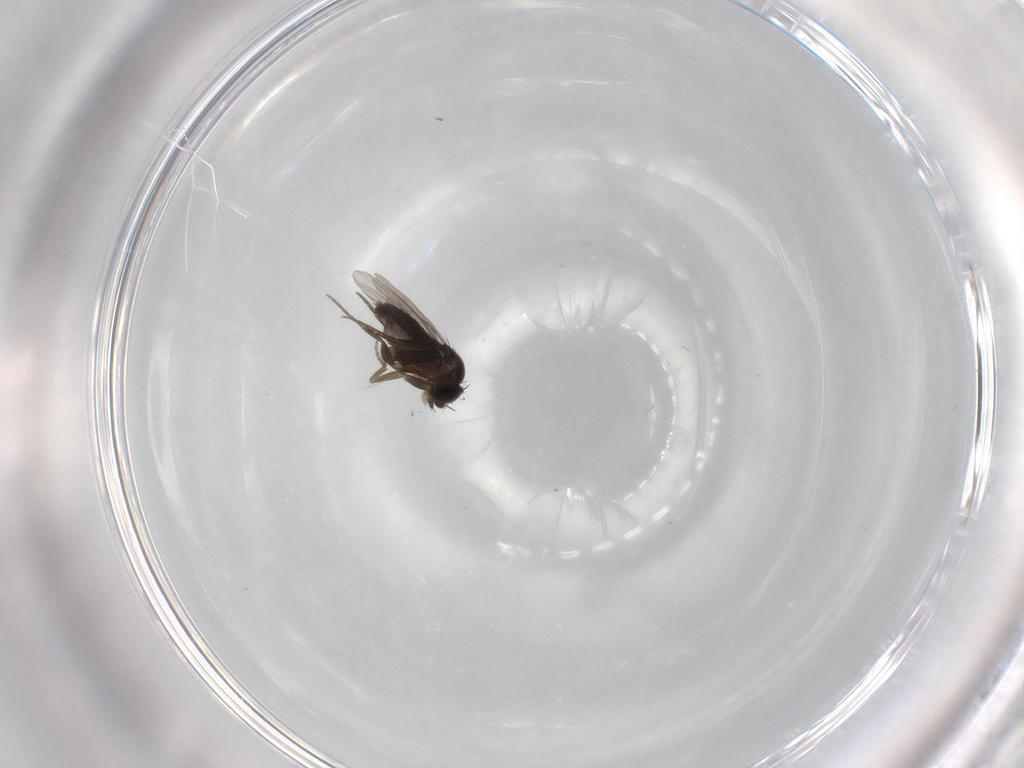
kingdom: Animalia
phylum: Arthropoda
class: Insecta
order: Diptera
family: Phoridae
